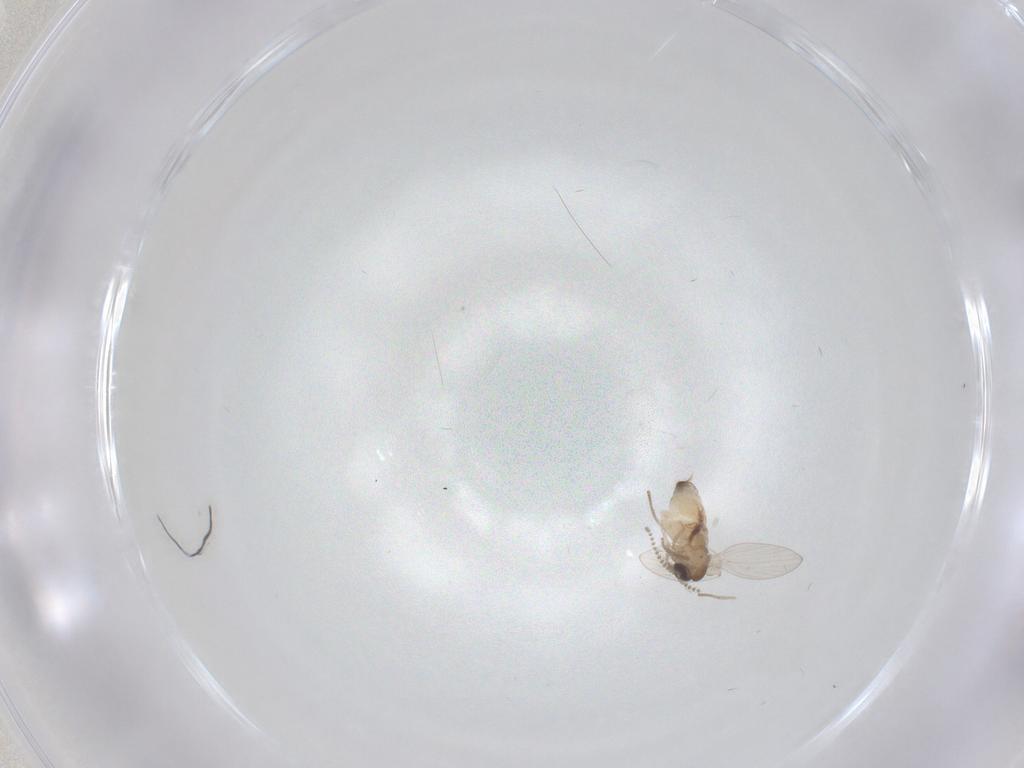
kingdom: Animalia
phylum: Arthropoda
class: Insecta
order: Diptera
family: Psychodidae
